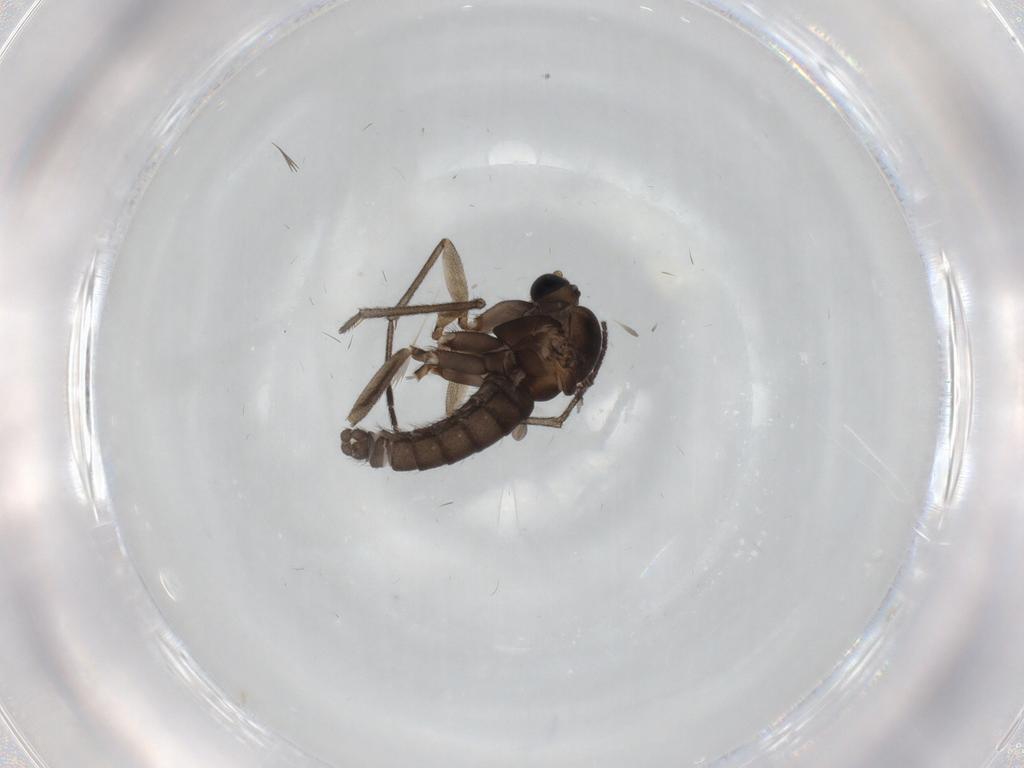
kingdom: Animalia
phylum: Arthropoda
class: Insecta
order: Diptera
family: Sciaridae
